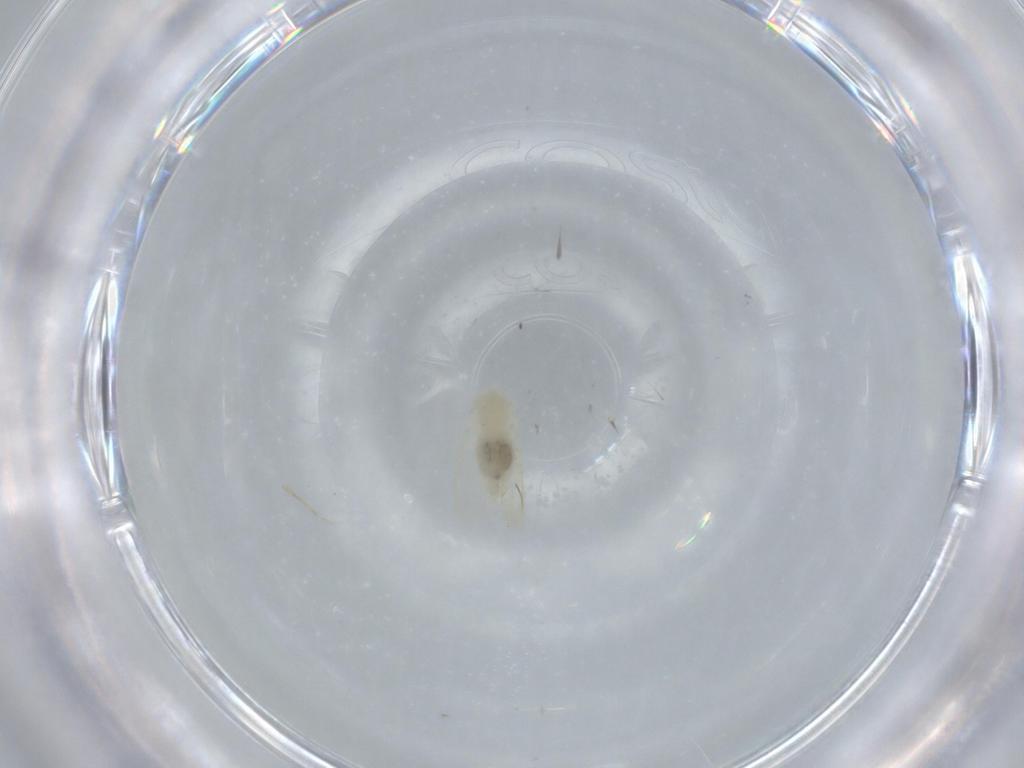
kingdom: Animalia
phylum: Arthropoda
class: Insecta
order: Hemiptera
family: Aleyrodidae
